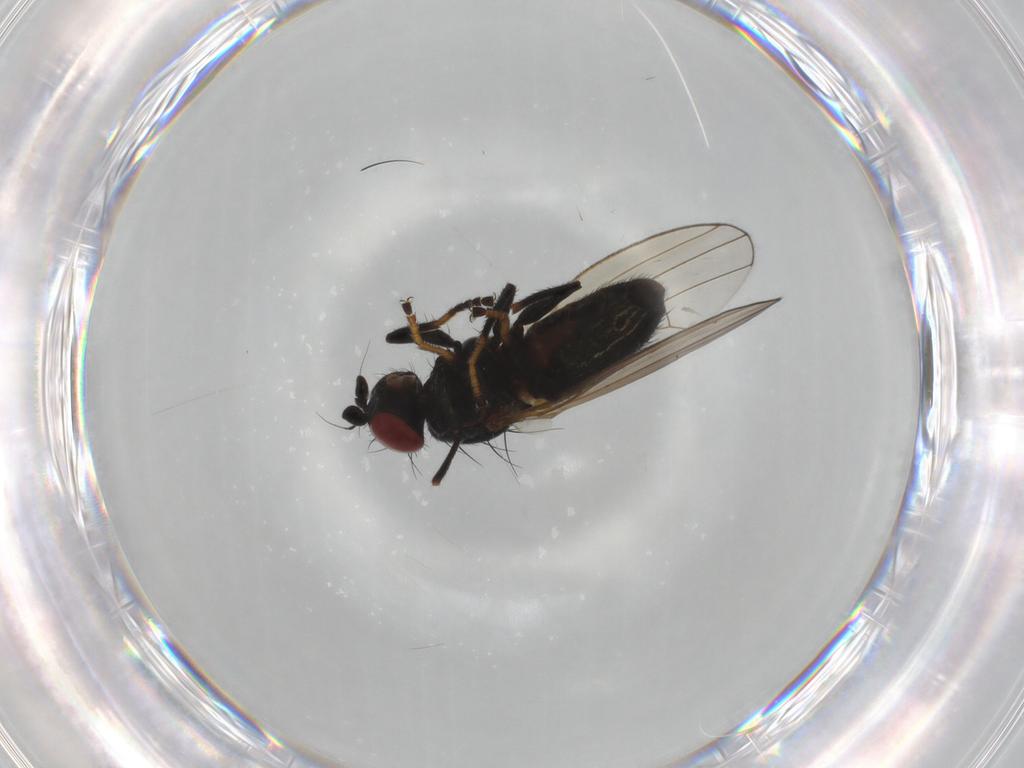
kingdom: Animalia
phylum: Arthropoda
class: Insecta
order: Diptera
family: Chamaemyiidae
